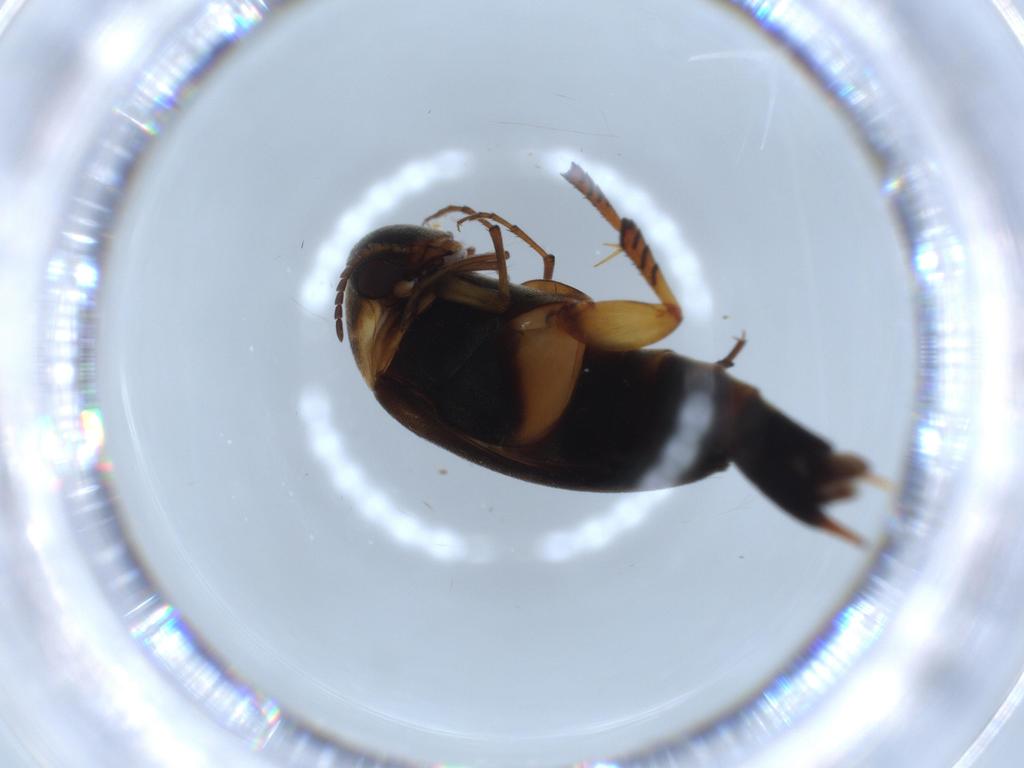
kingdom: Animalia
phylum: Arthropoda
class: Insecta
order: Coleoptera
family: Mordellidae
